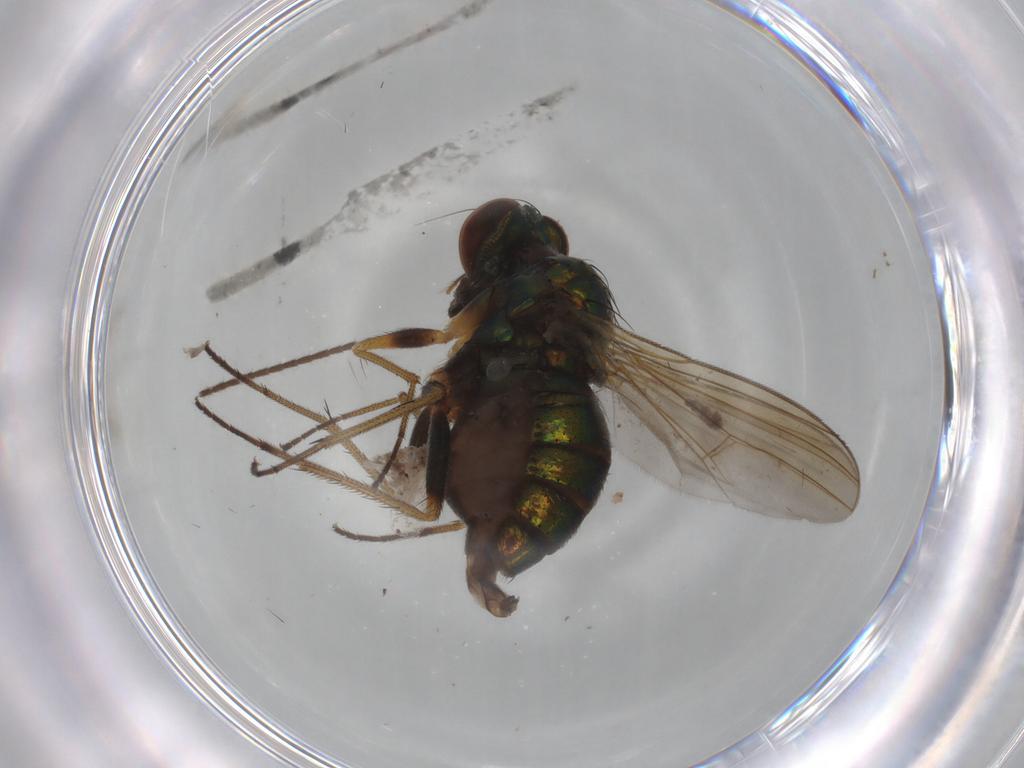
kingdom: Animalia
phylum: Arthropoda
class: Insecta
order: Diptera
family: Dolichopodidae
